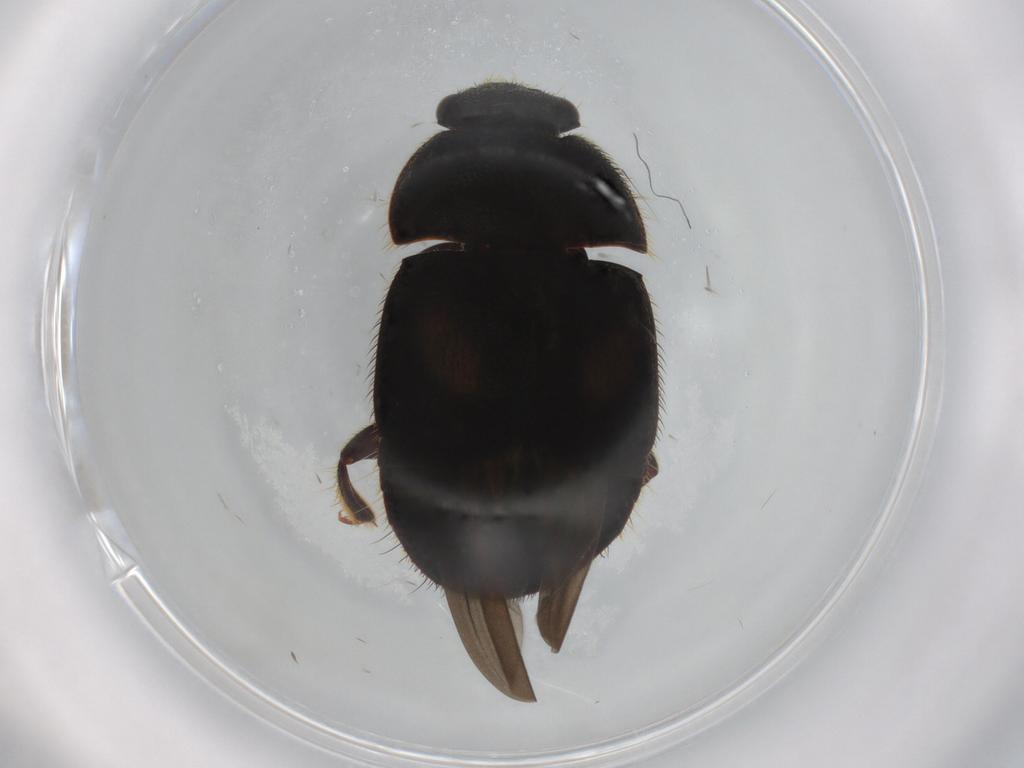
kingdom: Animalia
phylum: Arthropoda
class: Insecta
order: Coleoptera
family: Nitidulidae
